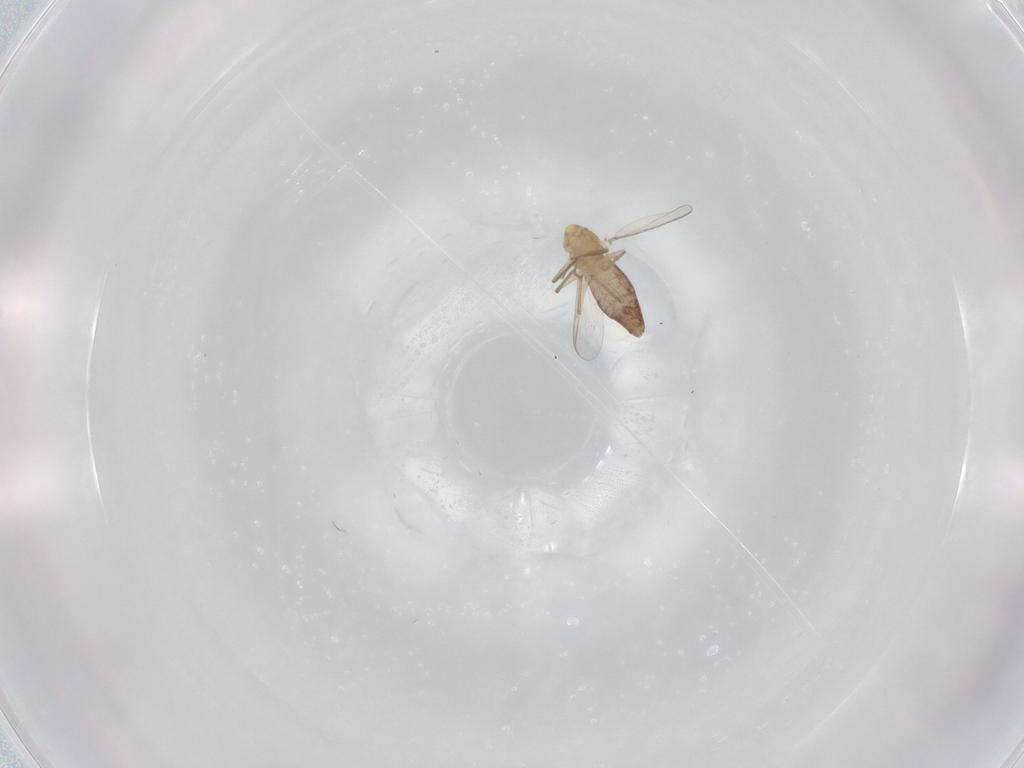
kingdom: Animalia
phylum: Arthropoda
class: Insecta
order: Diptera
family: Chironomidae
